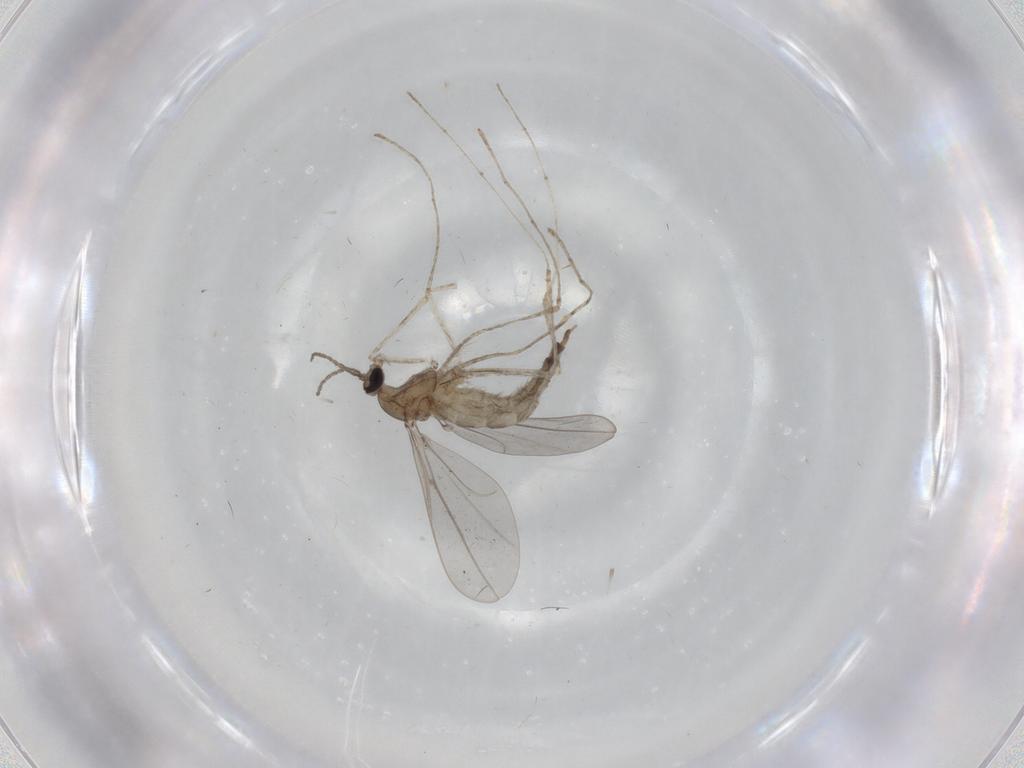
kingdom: Animalia
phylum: Arthropoda
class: Insecta
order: Diptera
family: Cecidomyiidae
